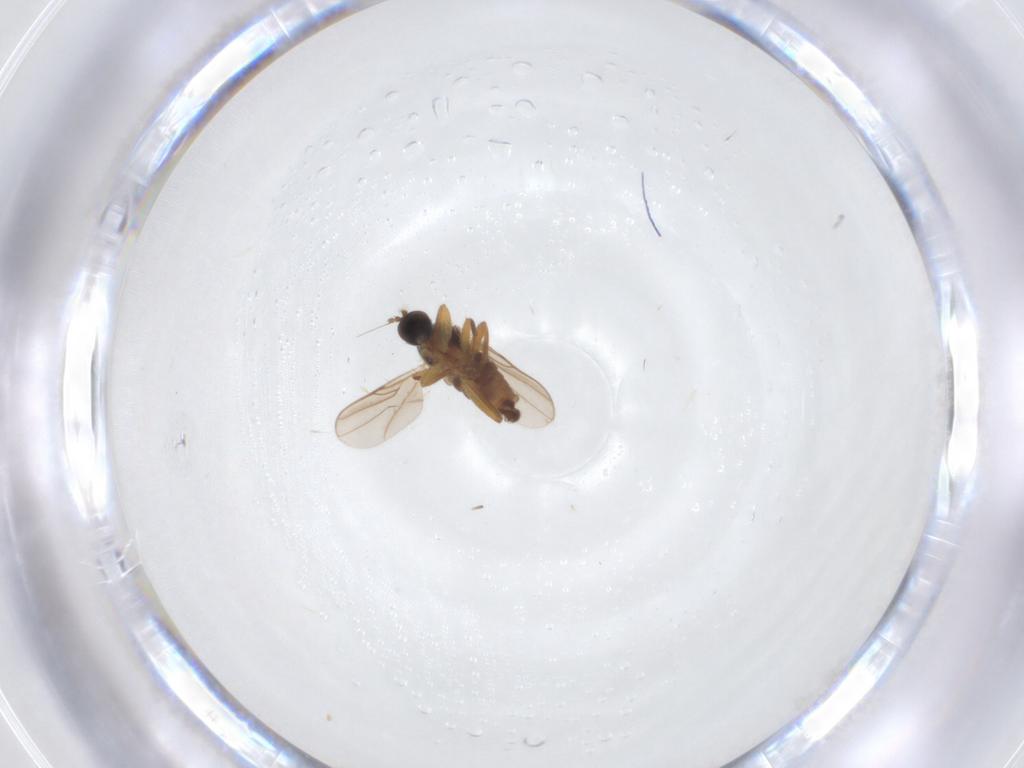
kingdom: Animalia
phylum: Arthropoda
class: Insecta
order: Diptera
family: Hybotidae
